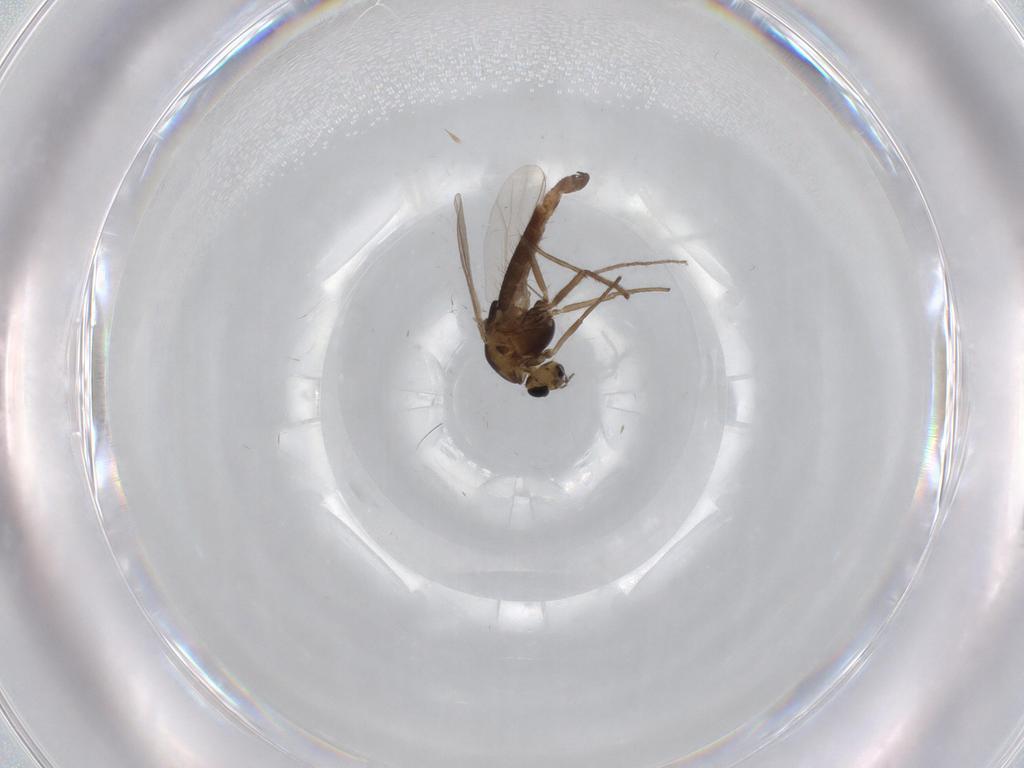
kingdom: Animalia
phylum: Arthropoda
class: Insecta
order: Diptera
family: Chironomidae
